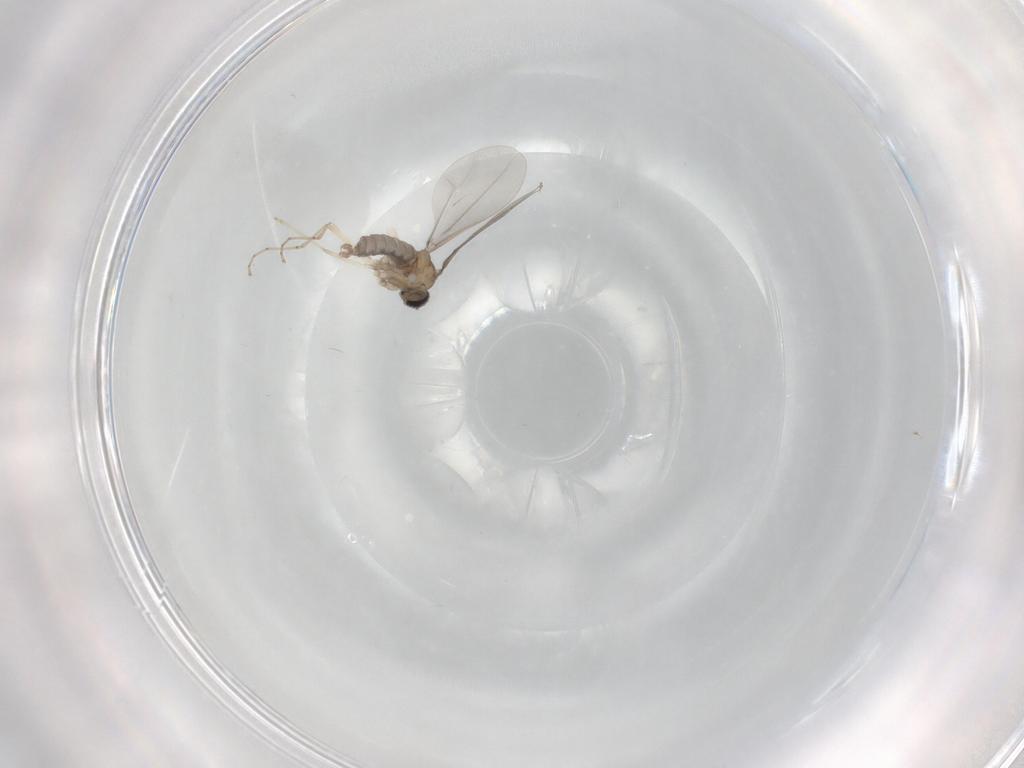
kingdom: Animalia
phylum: Arthropoda
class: Insecta
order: Diptera
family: Cecidomyiidae
